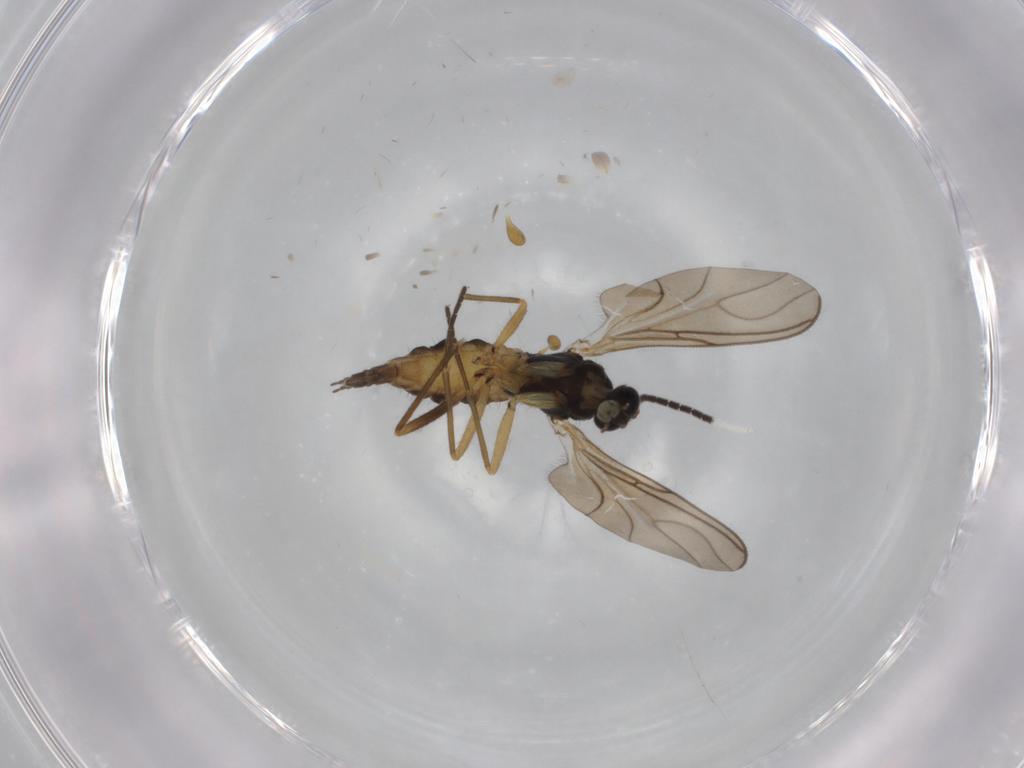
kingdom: Animalia
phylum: Arthropoda
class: Insecta
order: Diptera
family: Sciaridae
